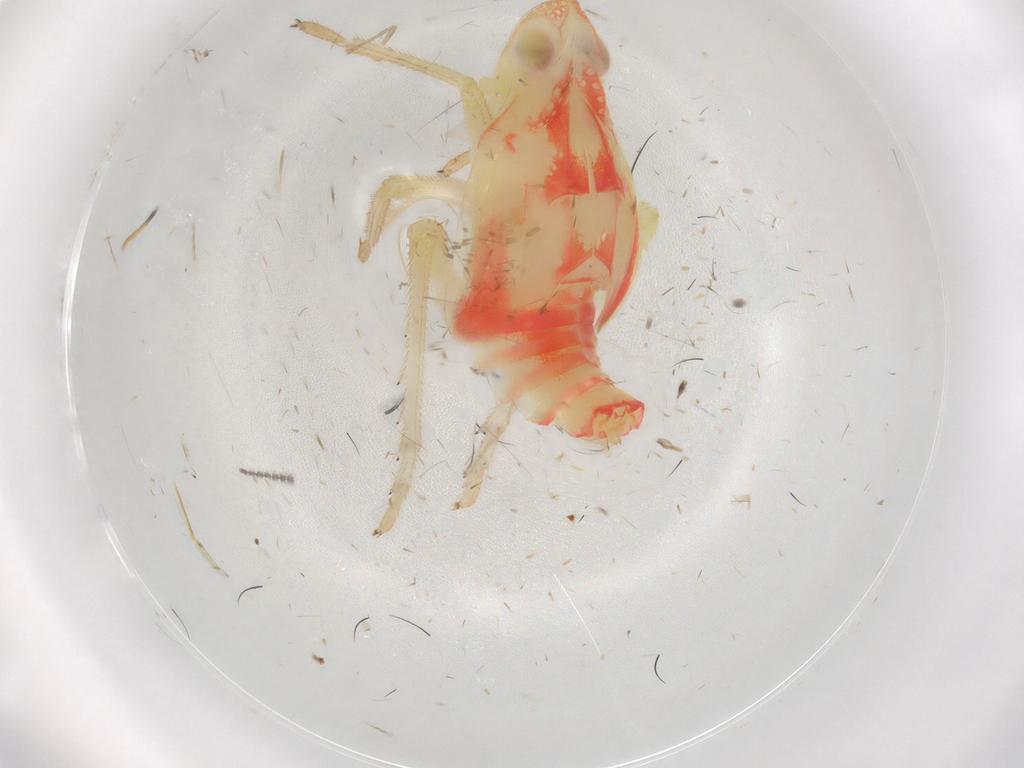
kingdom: Animalia
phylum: Arthropoda
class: Insecta
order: Hemiptera
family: Tropiduchidae
